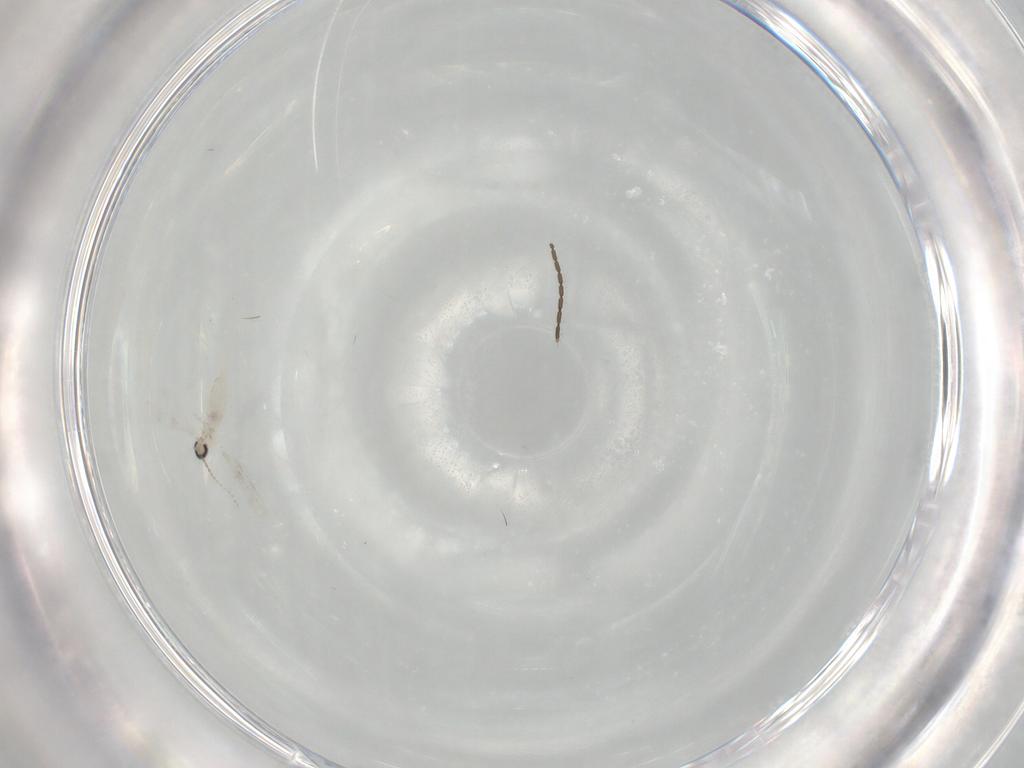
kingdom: Animalia
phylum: Arthropoda
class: Insecta
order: Diptera
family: Cecidomyiidae
